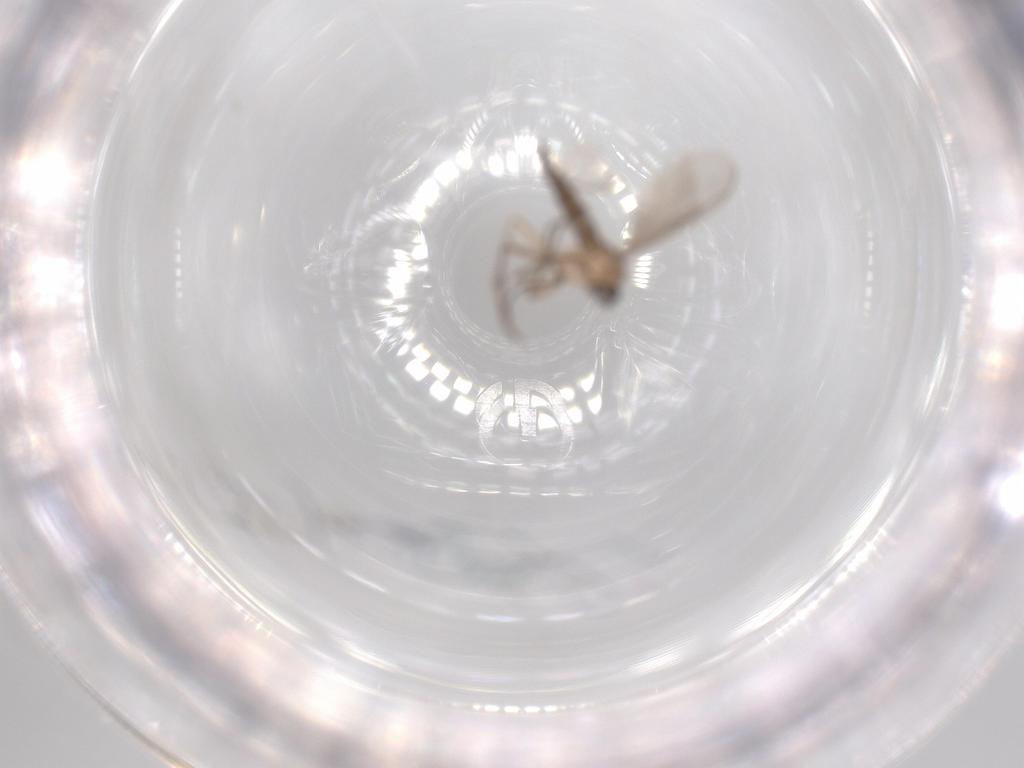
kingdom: Animalia
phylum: Arthropoda
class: Insecta
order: Diptera
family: Sciaridae
